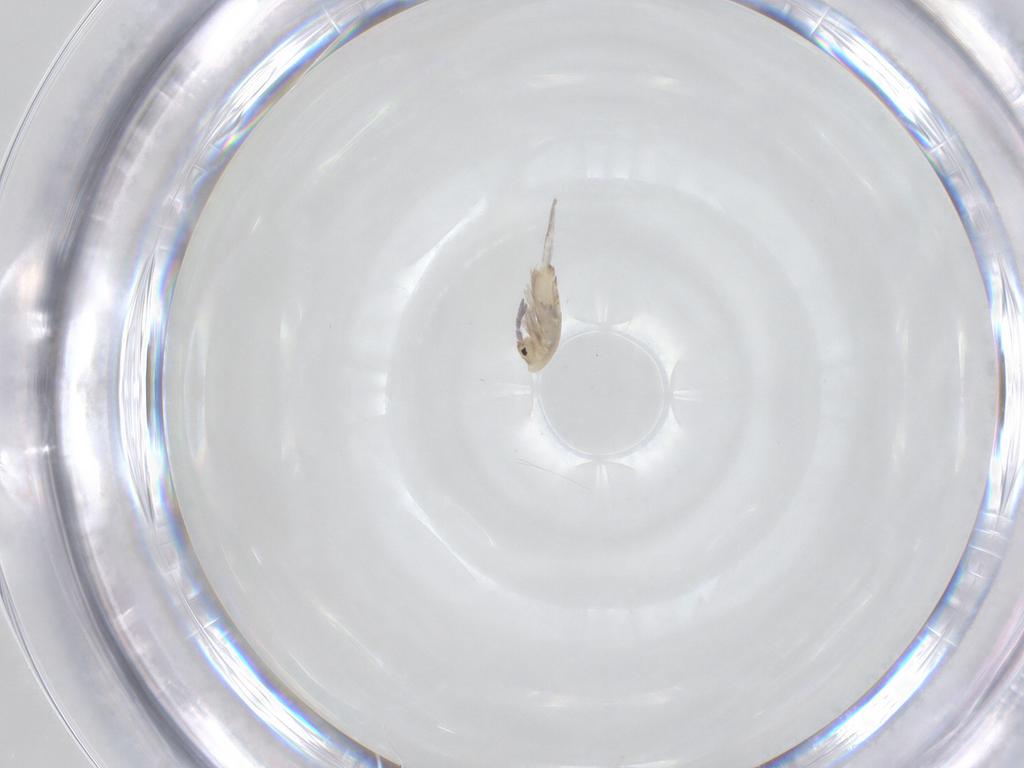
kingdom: Animalia
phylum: Arthropoda
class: Collembola
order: Entomobryomorpha
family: Entomobryidae
